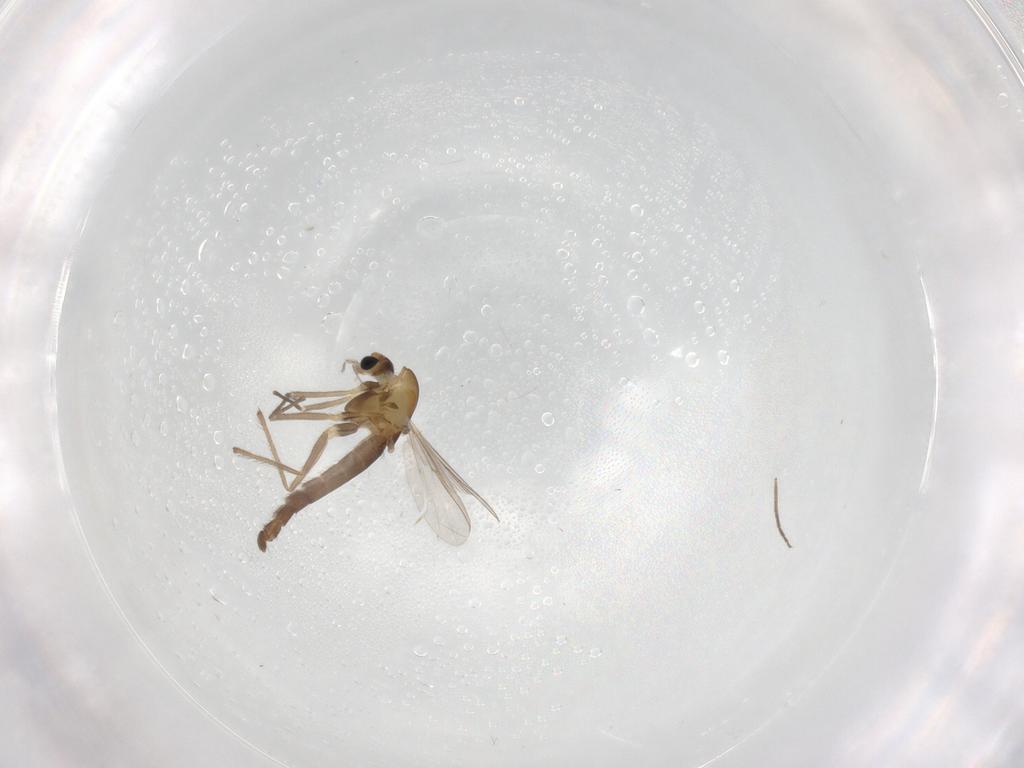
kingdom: Animalia
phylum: Arthropoda
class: Insecta
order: Diptera
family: Chironomidae
